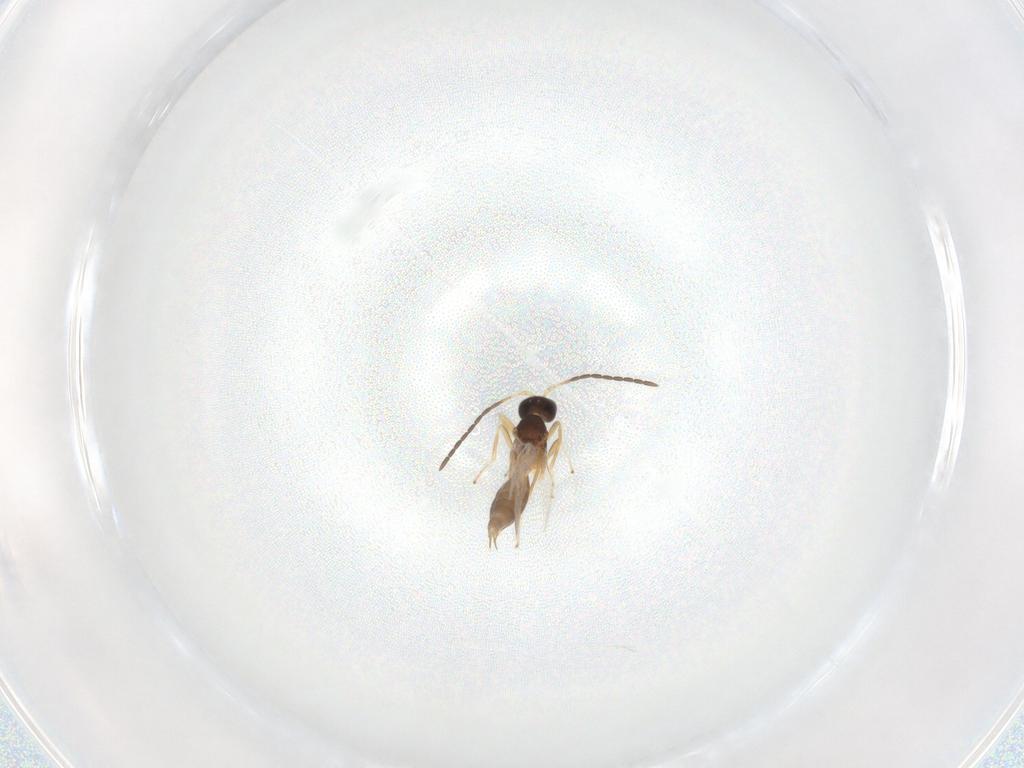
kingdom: Animalia
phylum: Arthropoda
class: Insecta
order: Hymenoptera
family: Braconidae
